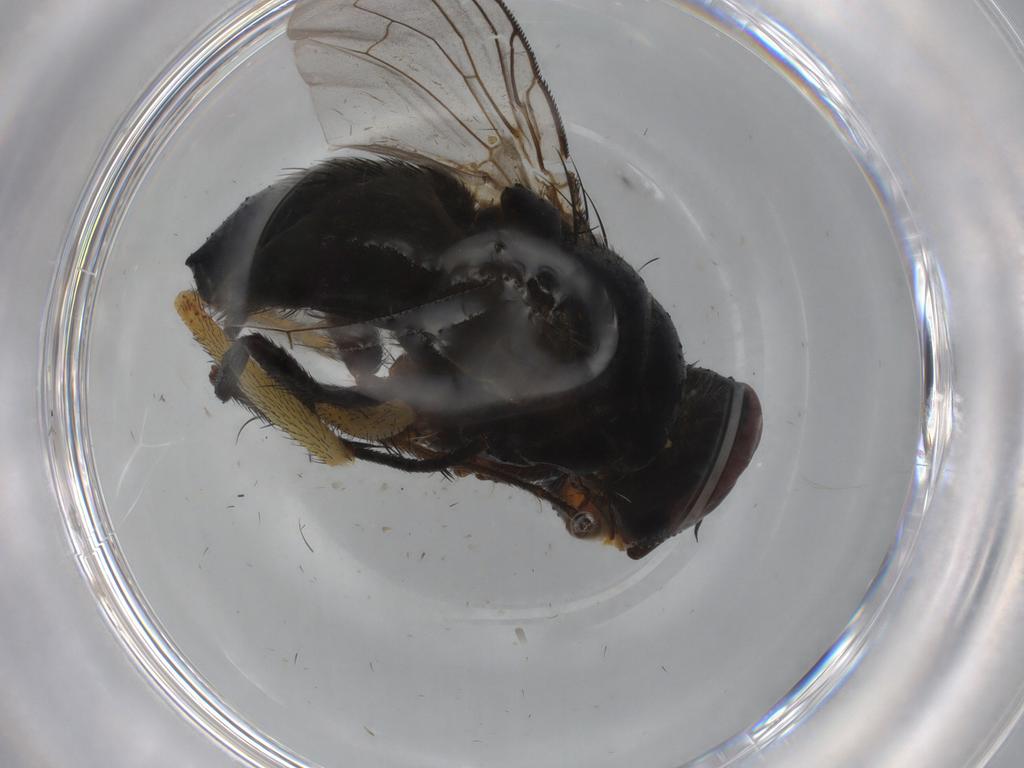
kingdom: Animalia
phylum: Arthropoda
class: Insecta
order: Diptera
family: Tachinidae
